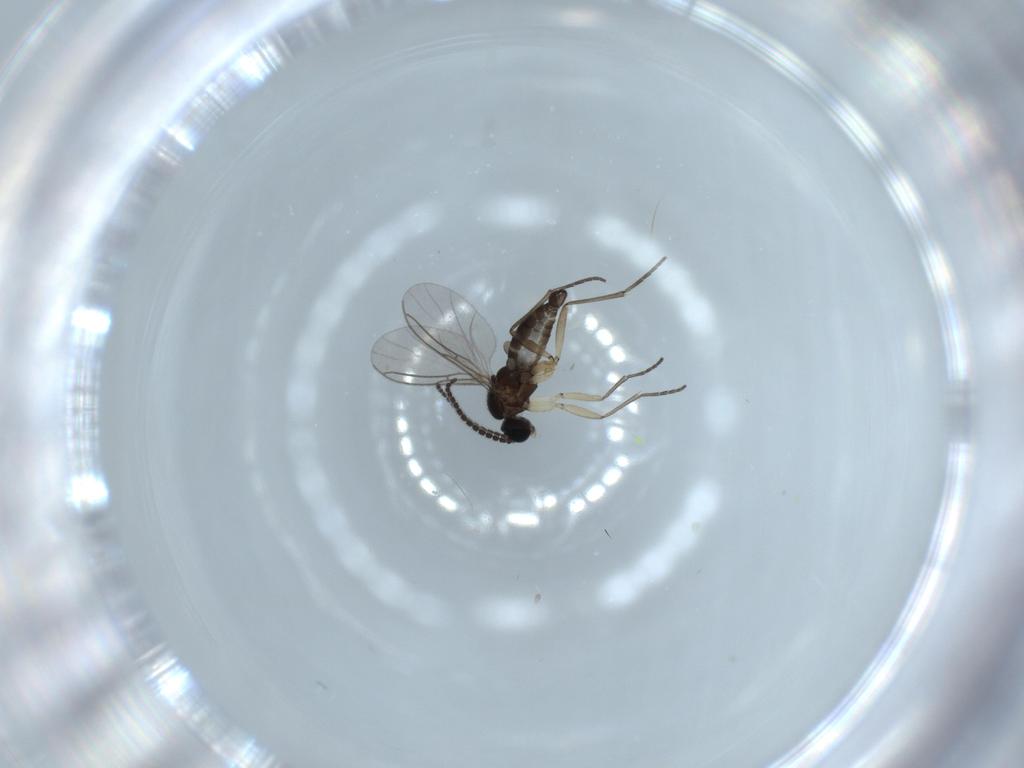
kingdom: Animalia
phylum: Arthropoda
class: Insecta
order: Diptera
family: Sciaridae
